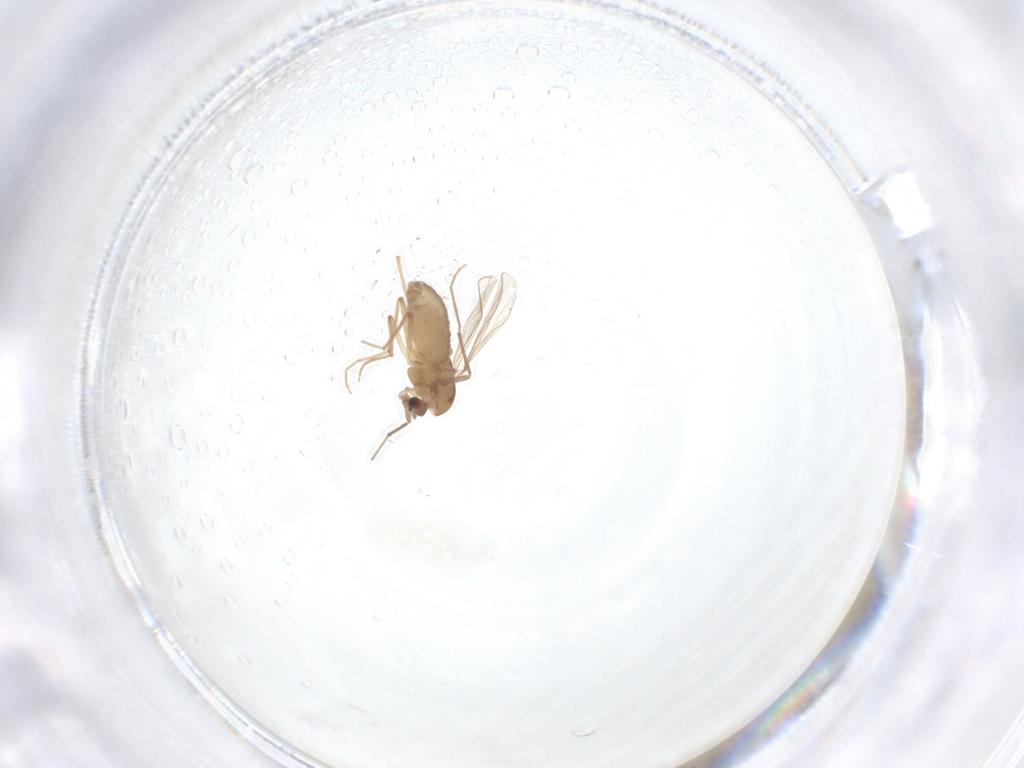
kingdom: Animalia
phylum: Arthropoda
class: Insecta
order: Diptera
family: Chironomidae
